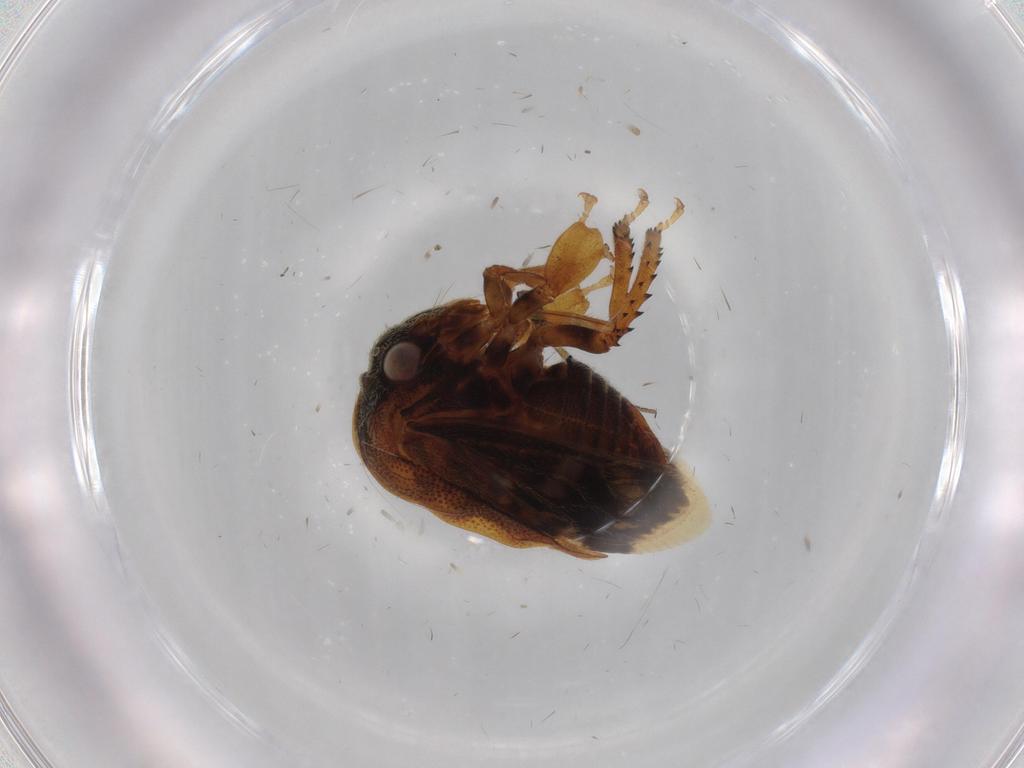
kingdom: Animalia
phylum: Arthropoda
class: Insecta
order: Hemiptera
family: Membracidae
